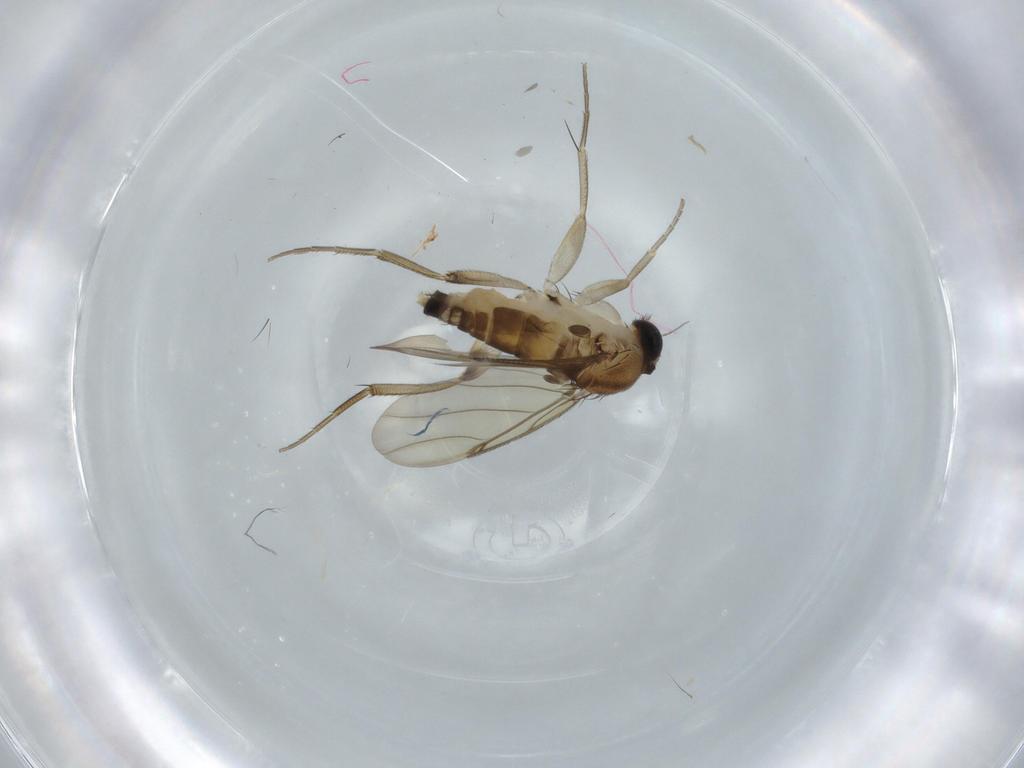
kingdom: Animalia
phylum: Arthropoda
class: Insecta
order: Diptera
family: Phoridae
